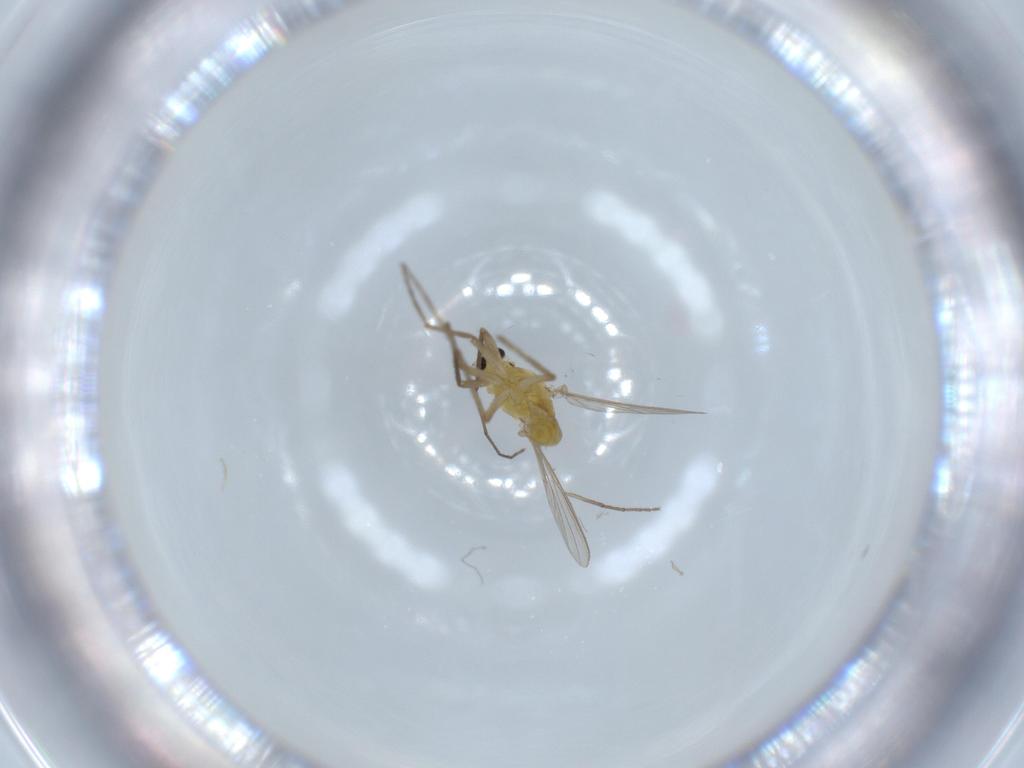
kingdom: Animalia
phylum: Arthropoda
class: Insecta
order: Diptera
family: Chironomidae
